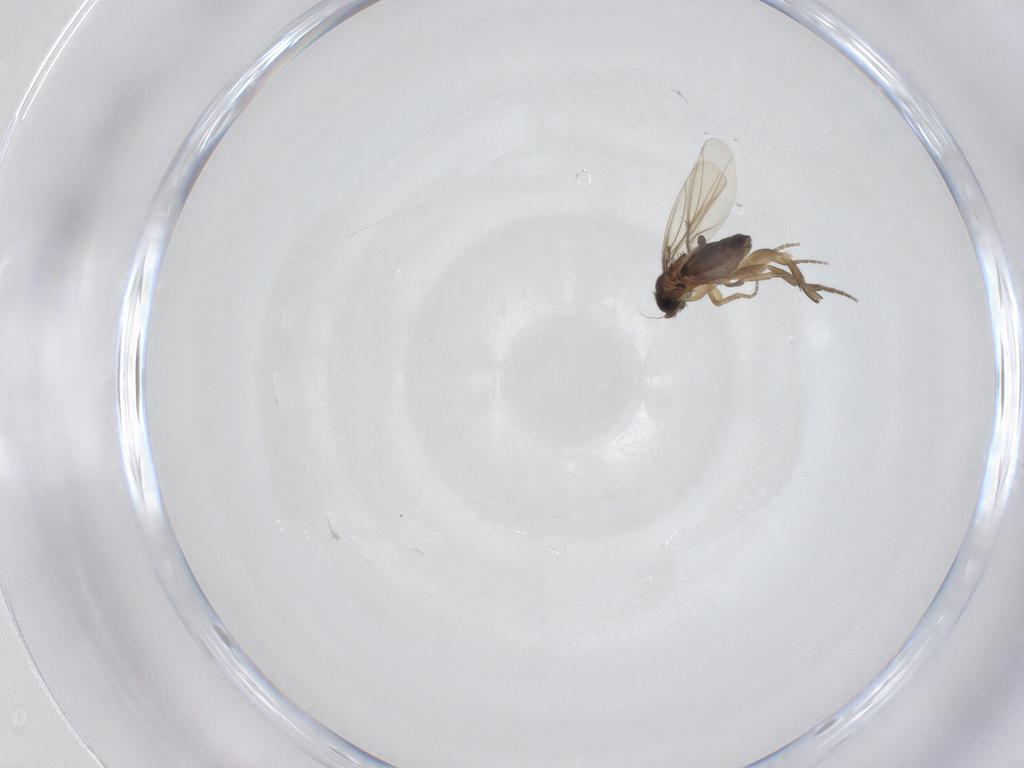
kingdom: Animalia
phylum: Arthropoda
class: Insecta
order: Diptera
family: Phoridae
